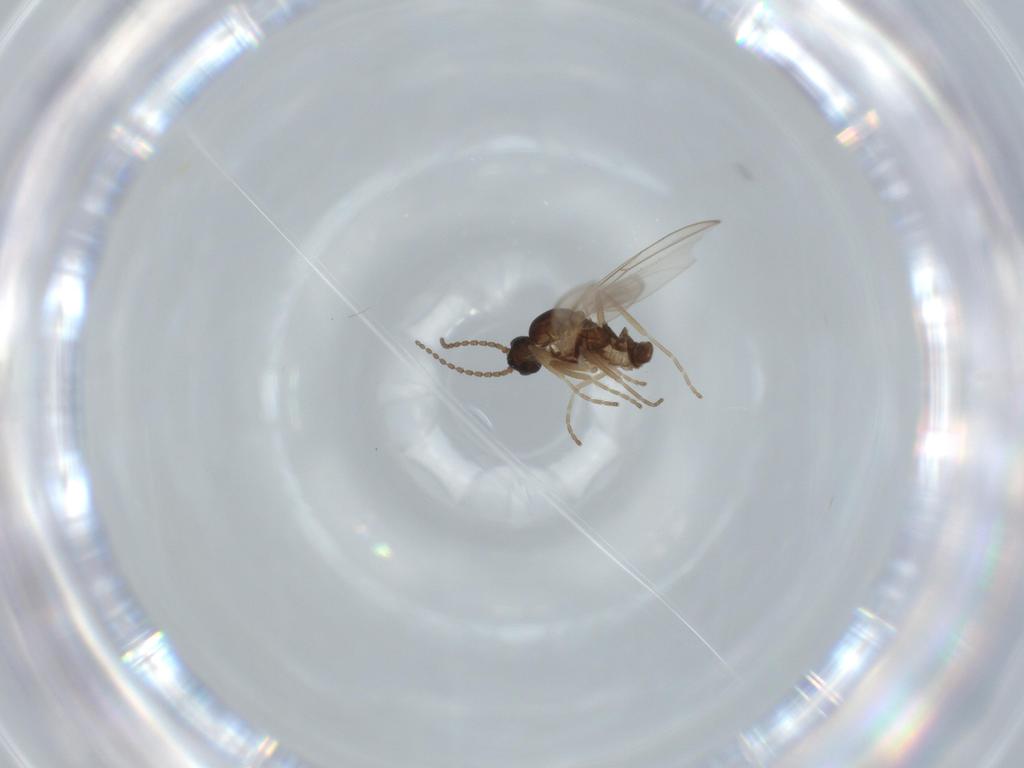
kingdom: Animalia
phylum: Arthropoda
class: Insecta
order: Diptera
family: Cecidomyiidae
